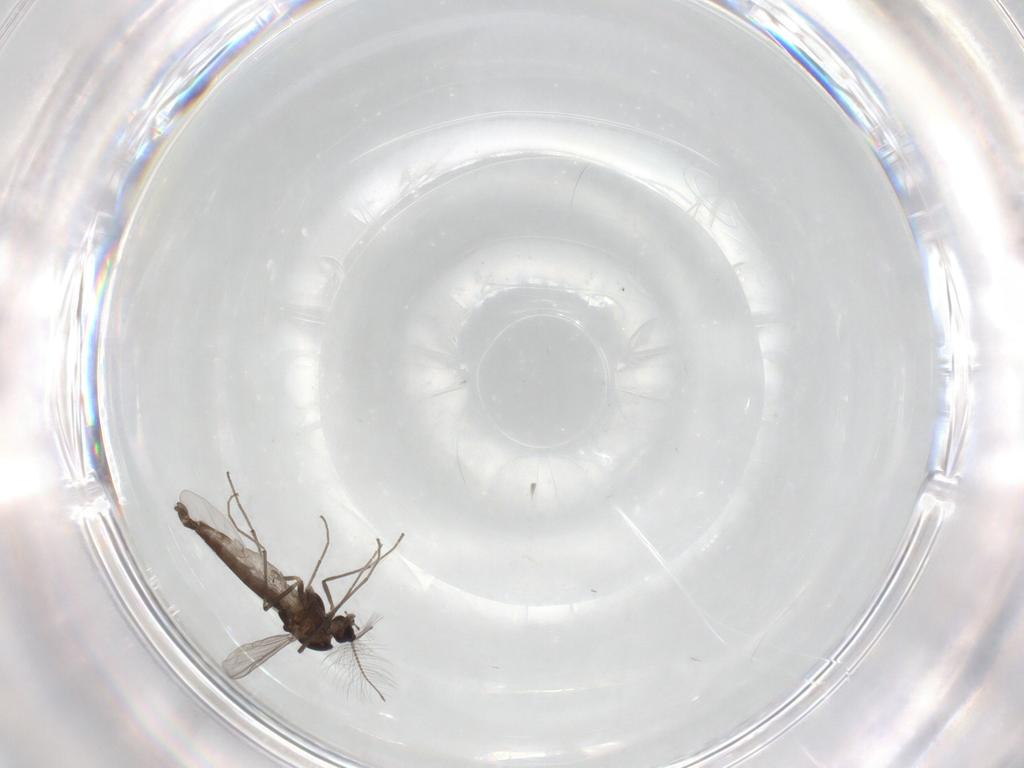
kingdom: Animalia
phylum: Arthropoda
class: Insecta
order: Diptera
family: Chironomidae
